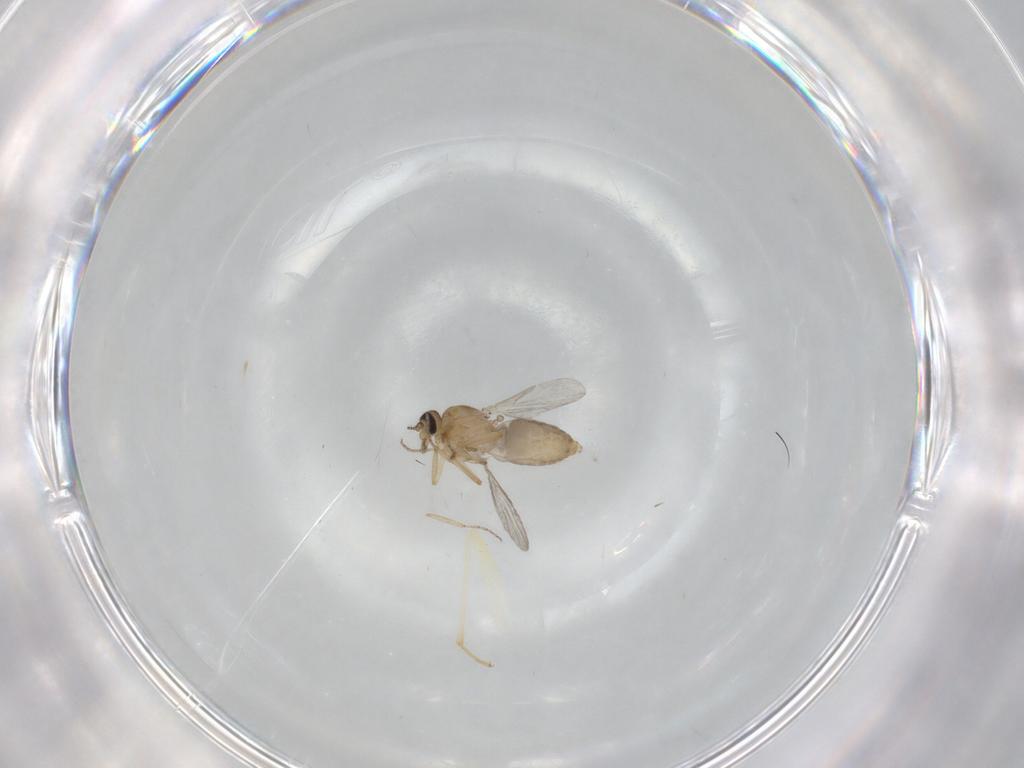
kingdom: Animalia
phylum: Arthropoda
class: Insecta
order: Diptera
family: Ceratopogonidae
